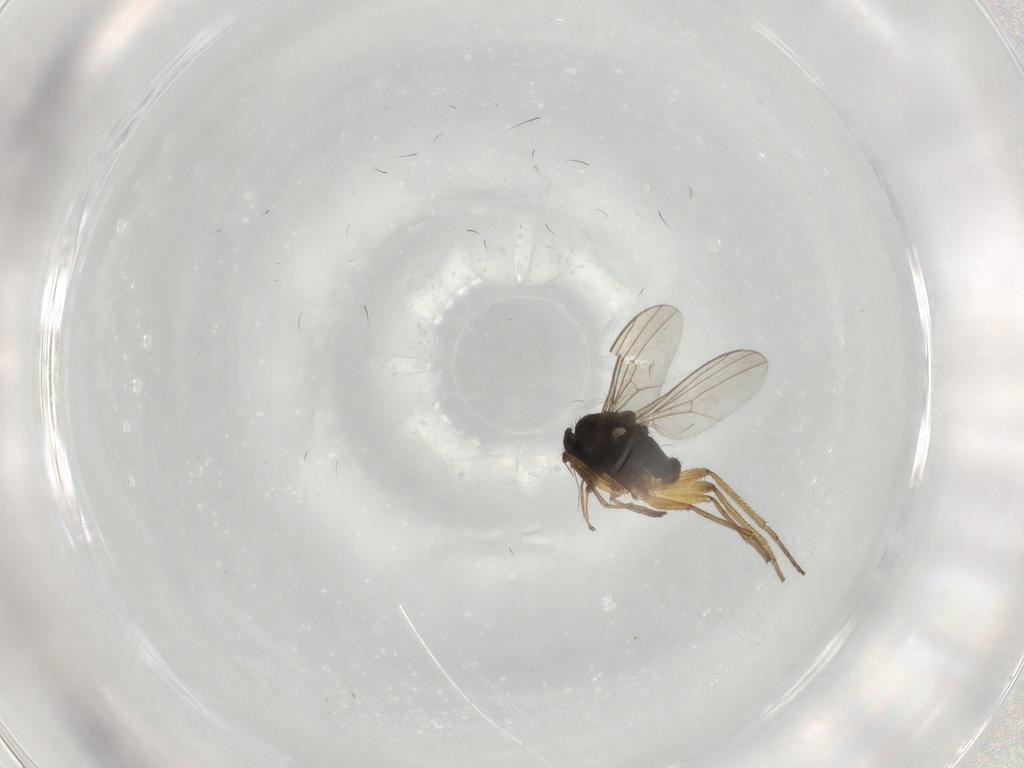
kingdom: Animalia
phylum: Arthropoda
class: Insecta
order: Diptera
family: Dolichopodidae
